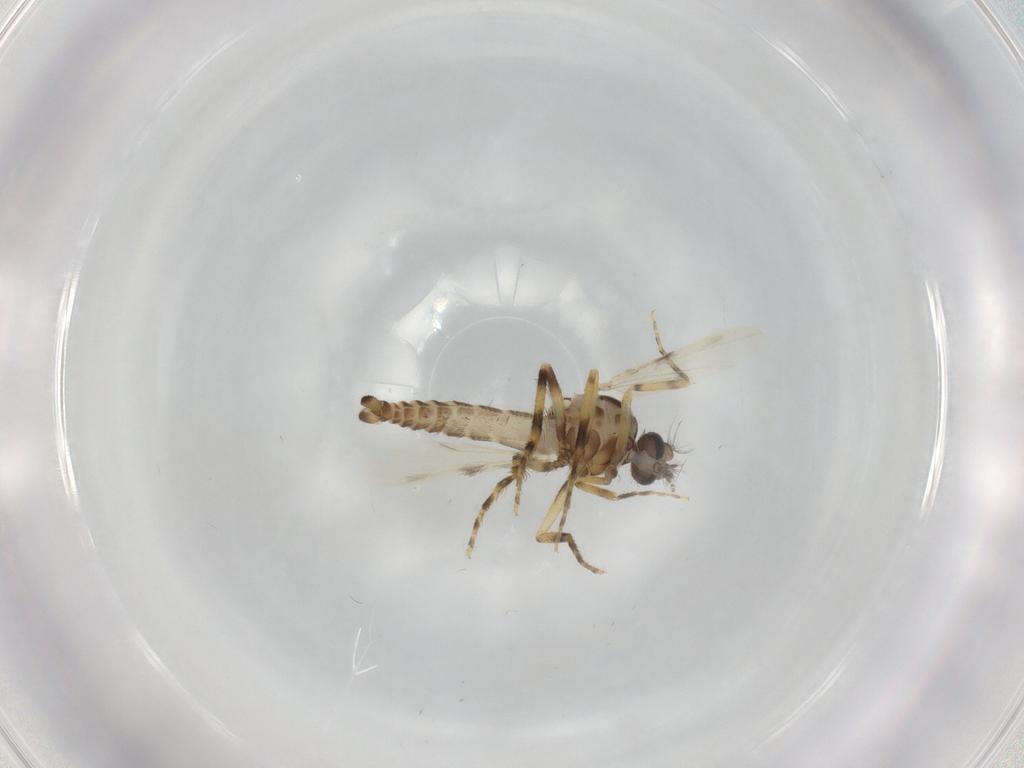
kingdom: Animalia
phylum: Arthropoda
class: Insecta
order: Diptera
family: Ceratopogonidae
